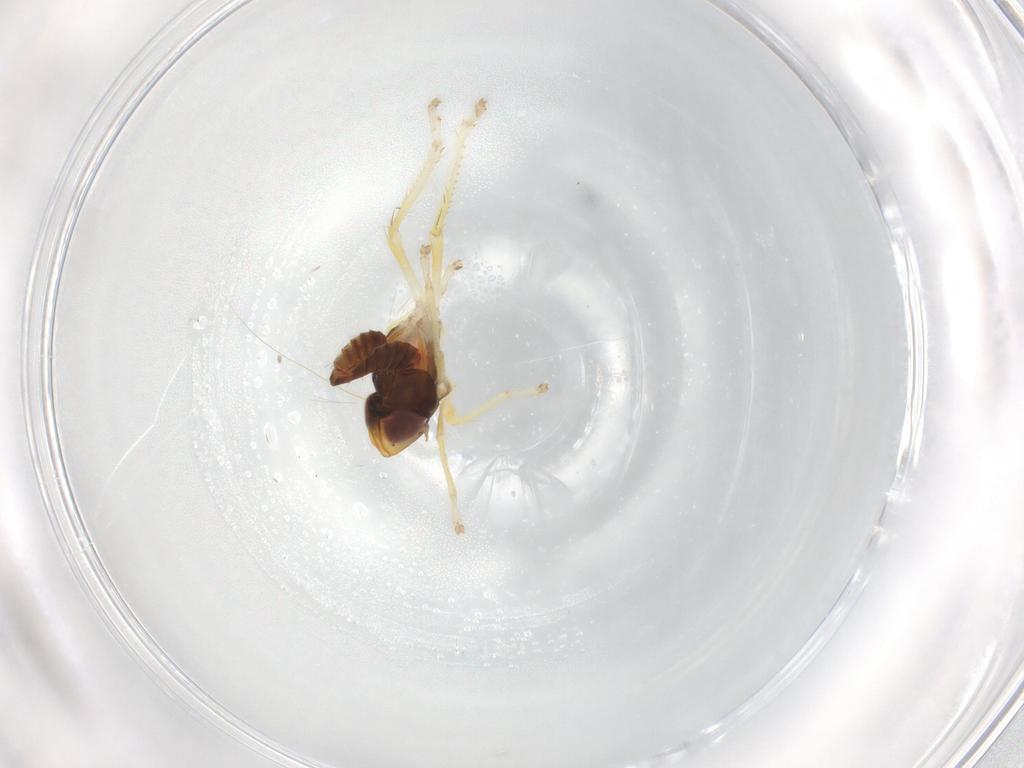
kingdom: Animalia
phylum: Arthropoda
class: Insecta
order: Hemiptera
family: Cicadellidae
